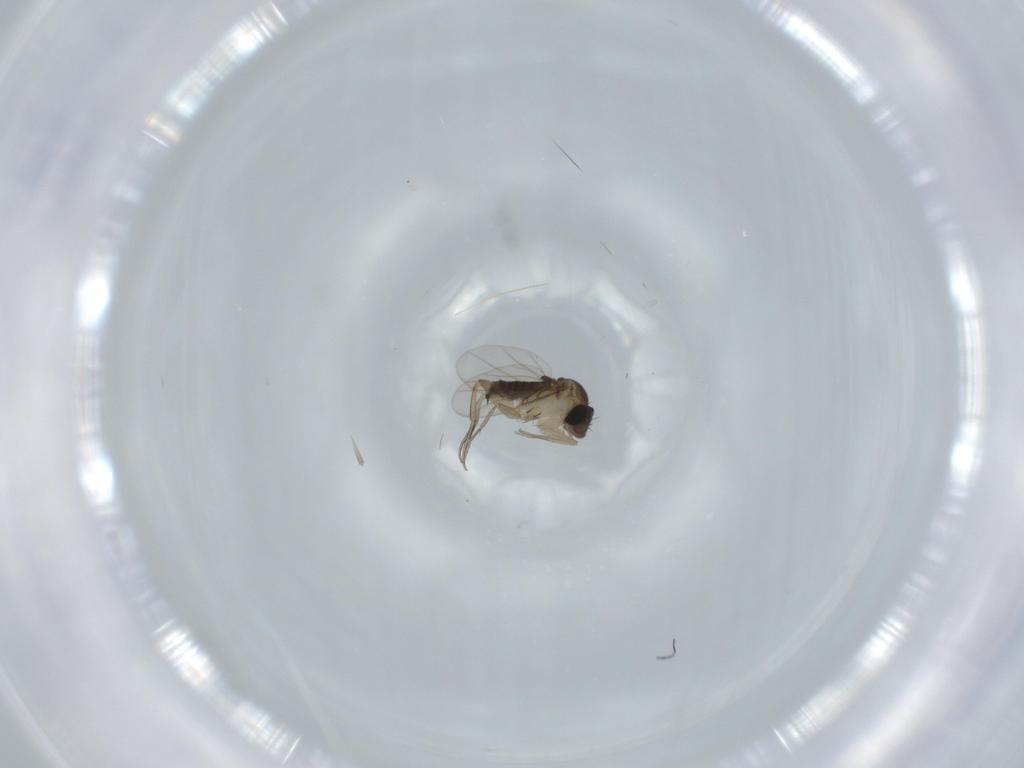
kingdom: Animalia
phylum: Arthropoda
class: Insecta
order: Diptera
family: Phoridae
